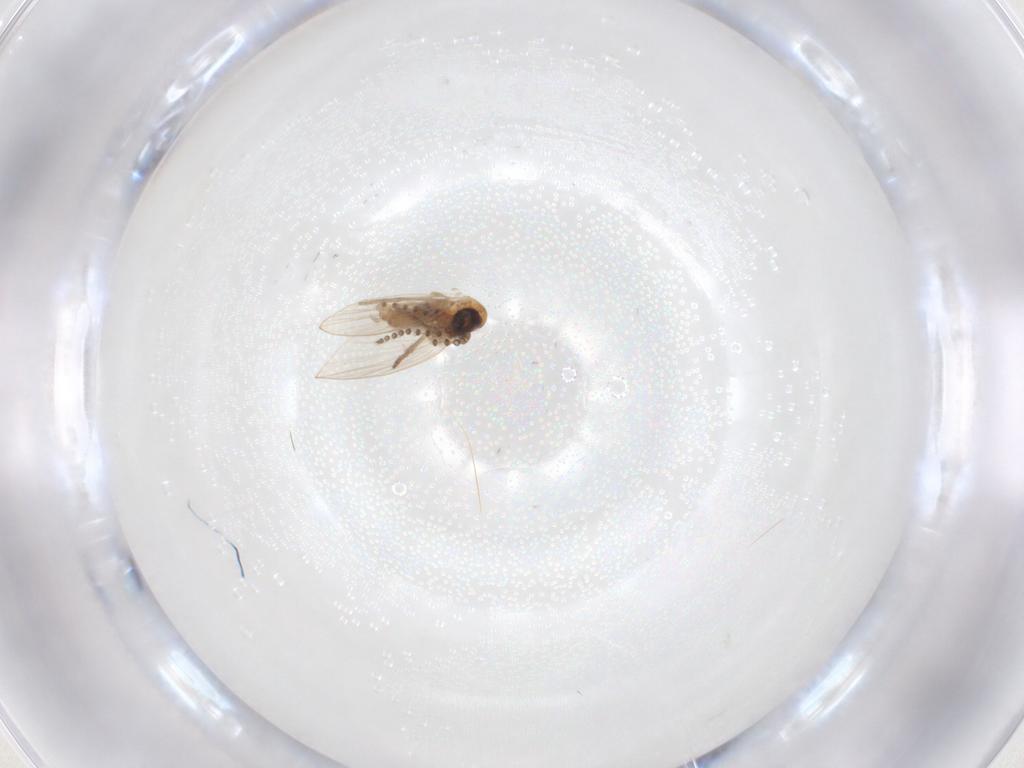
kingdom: Animalia
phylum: Arthropoda
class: Insecta
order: Diptera
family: Psychodidae
